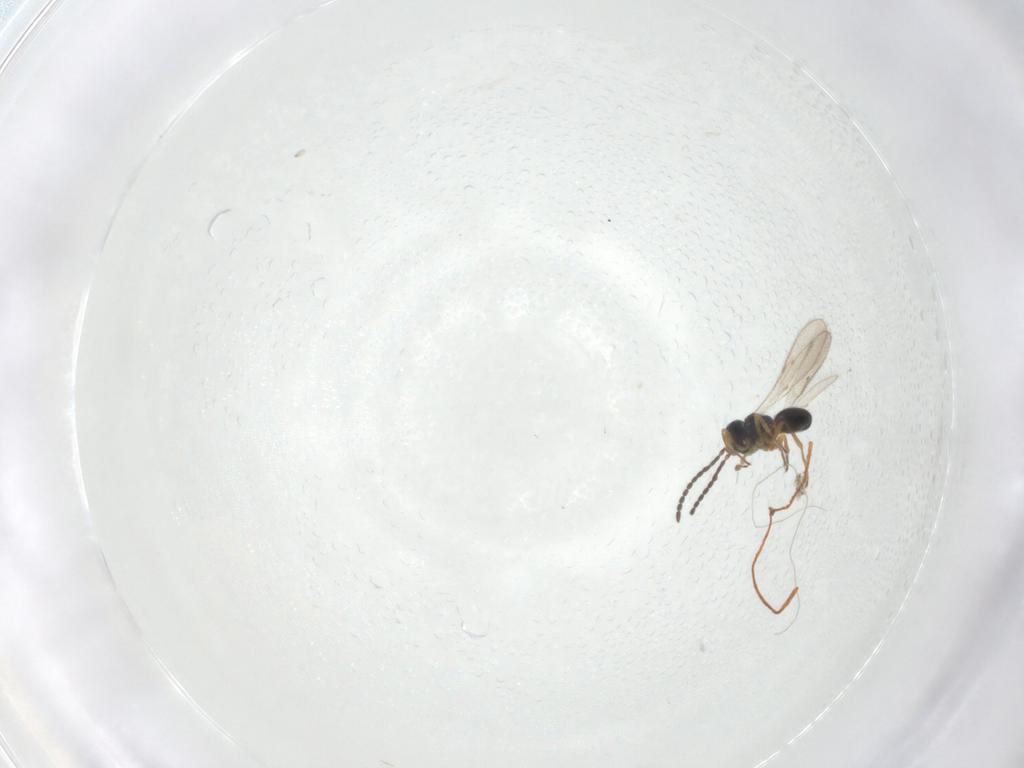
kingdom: Animalia
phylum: Arthropoda
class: Insecta
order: Hymenoptera
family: Scelionidae
